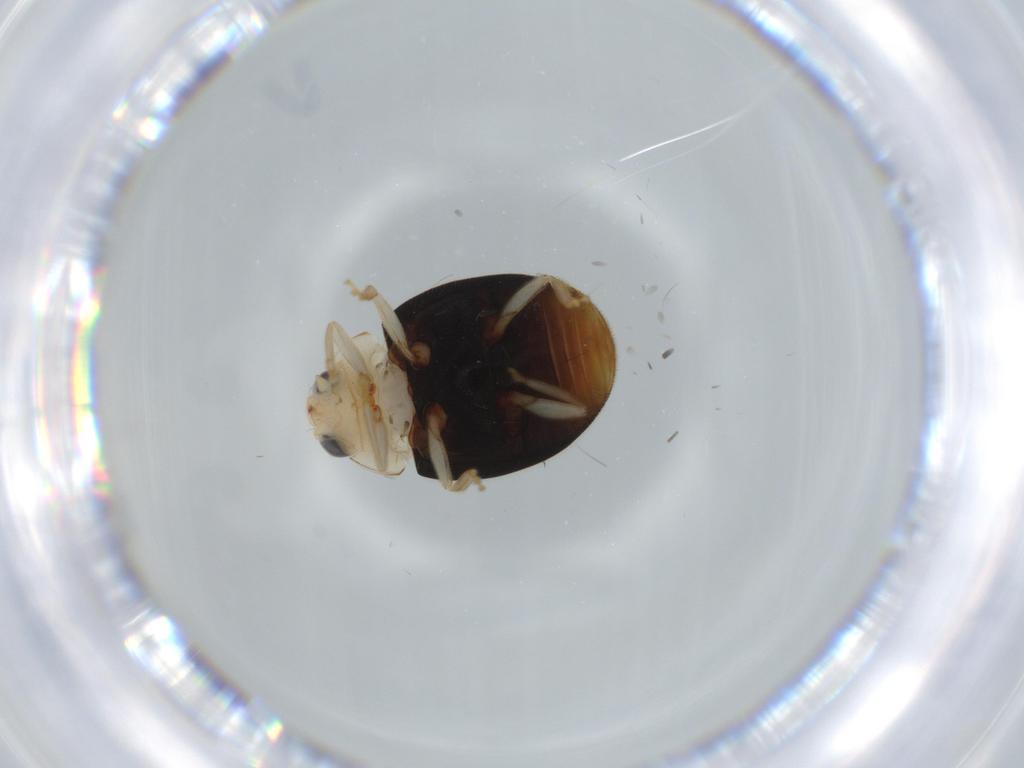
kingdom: Animalia
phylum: Arthropoda
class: Insecta
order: Coleoptera
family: Coccinellidae
